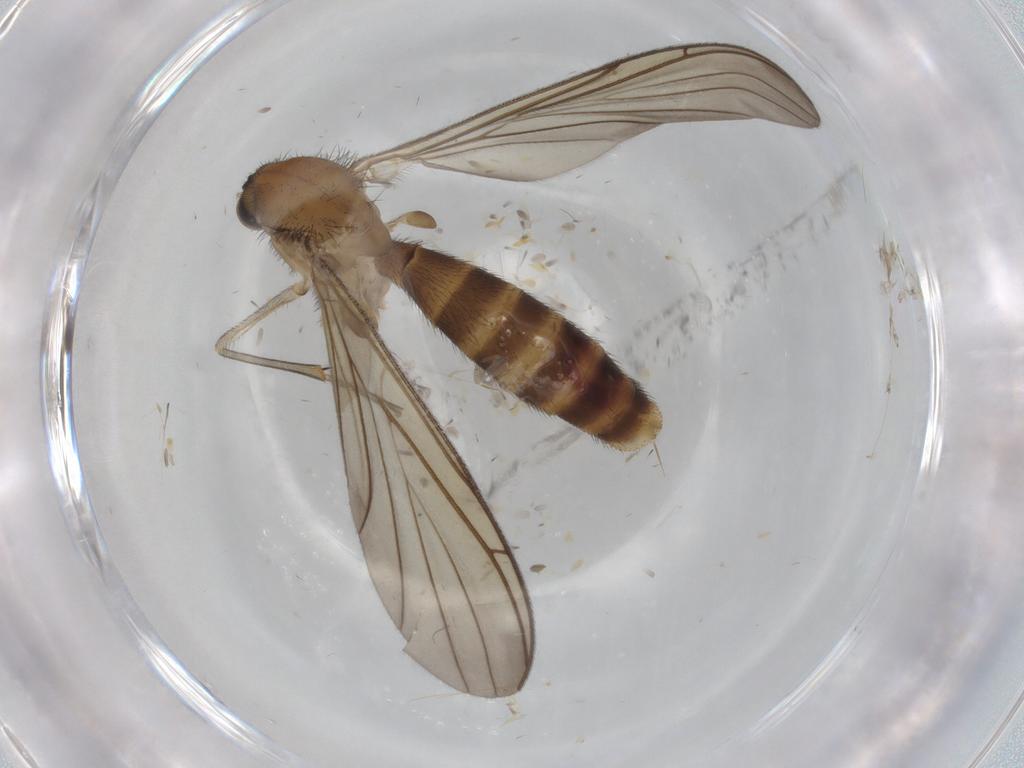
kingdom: Animalia
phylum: Arthropoda
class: Insecta
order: Diptera
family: Keroplatidae
